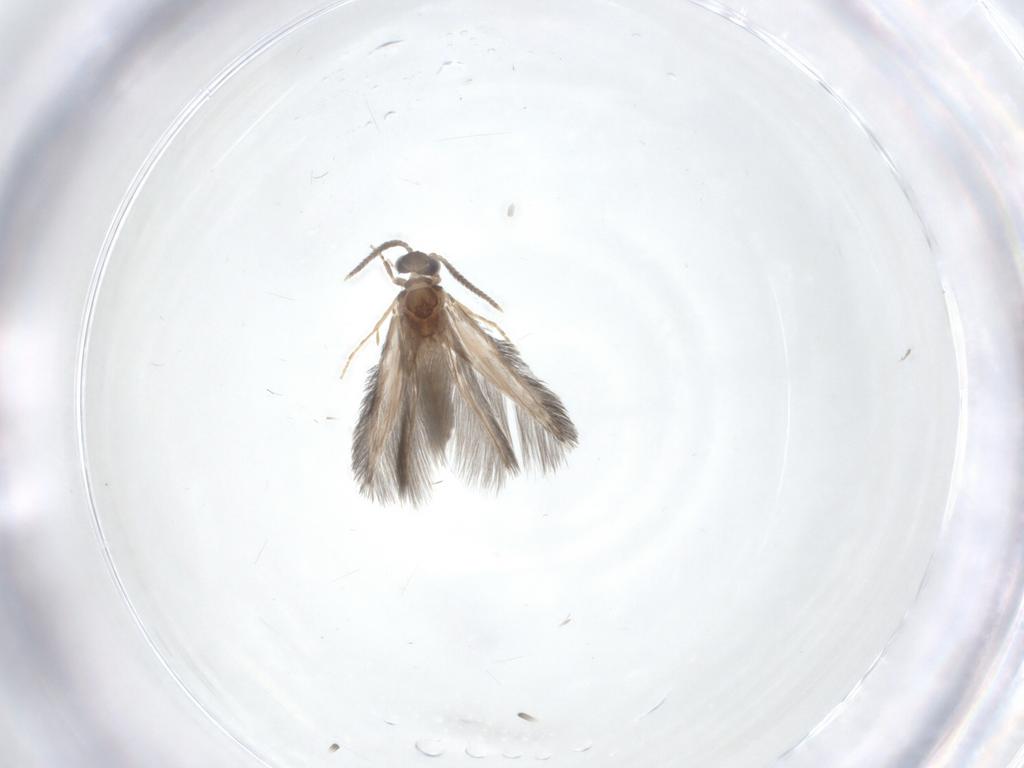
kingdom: Animalia
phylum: Arthropoda
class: Insecta
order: Trichoptera
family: Hydroptilidae
